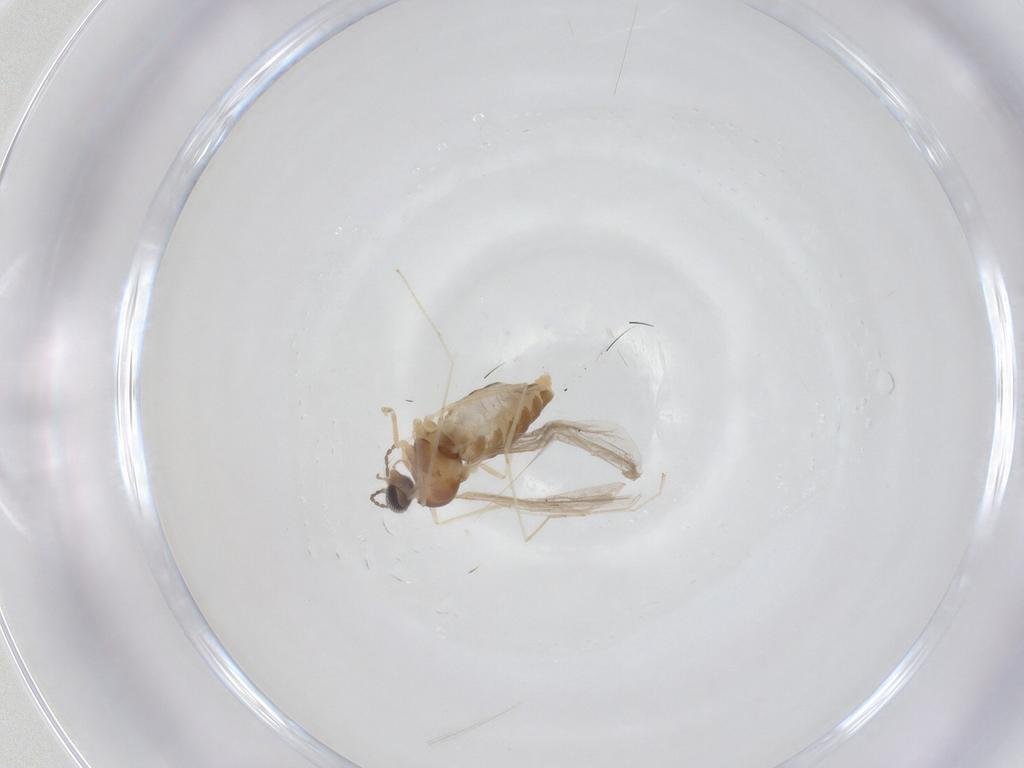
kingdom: Animalia
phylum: Arthropoda
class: Insecta
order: Diptera
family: Cecidomyiidae
